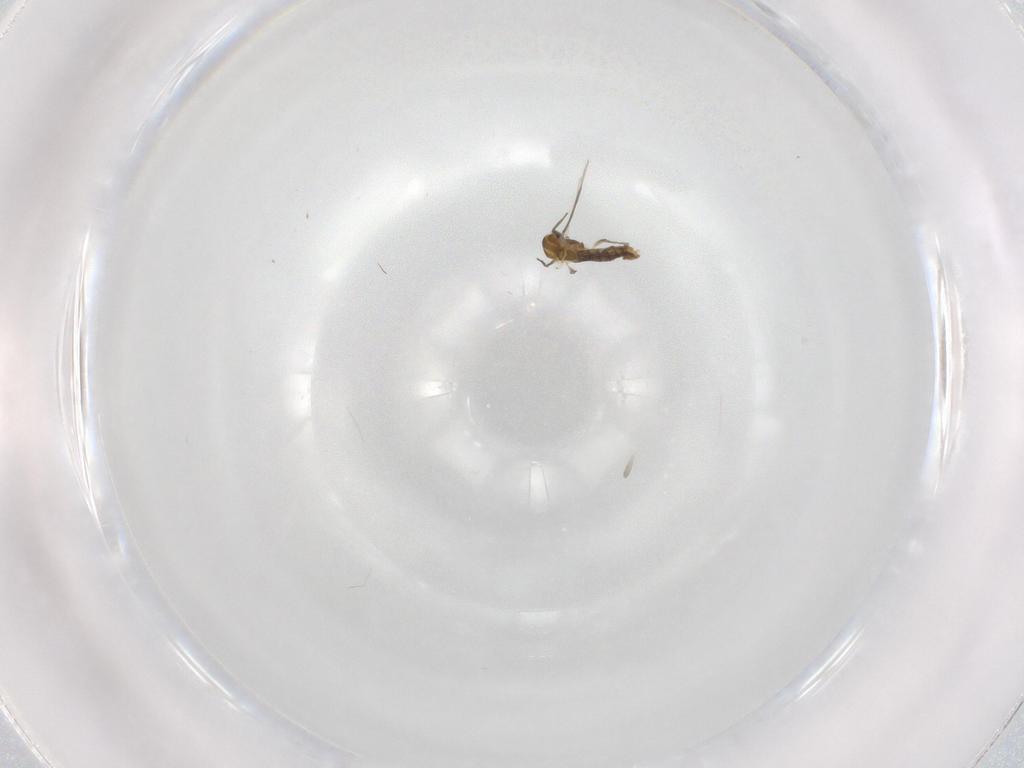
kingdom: Animalia
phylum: Arthropoda
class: Insecta
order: Diptera
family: Chironomidae
